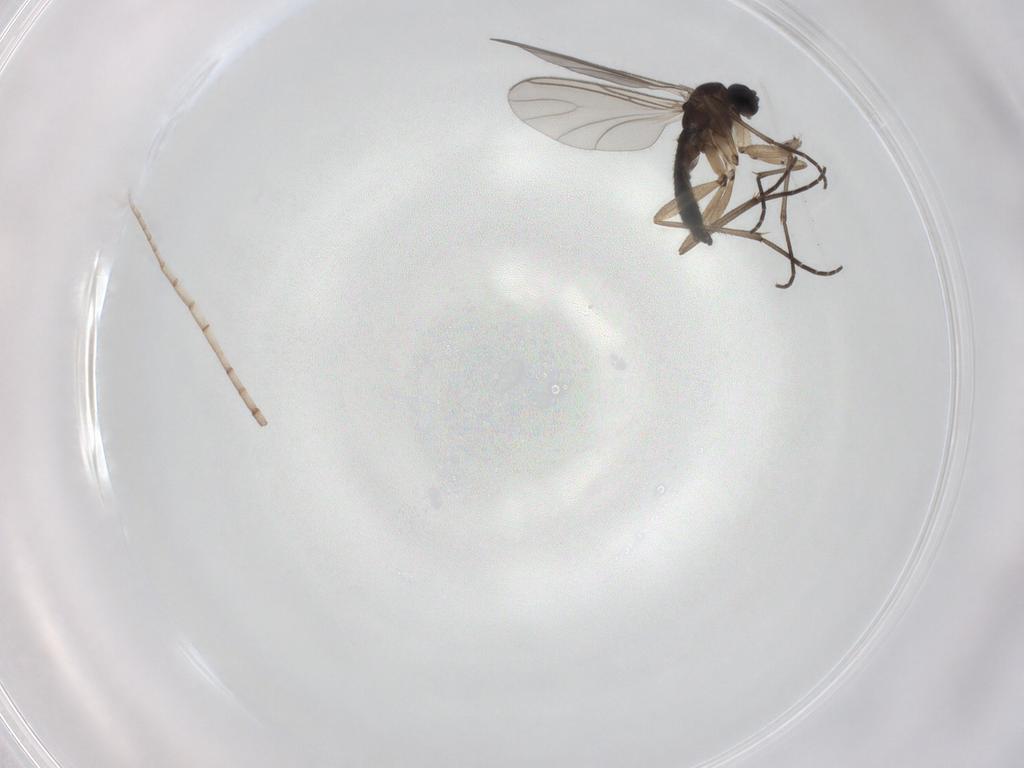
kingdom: Animalia
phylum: Arthropoda
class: Insecta
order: Diptera
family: Sciaridae
